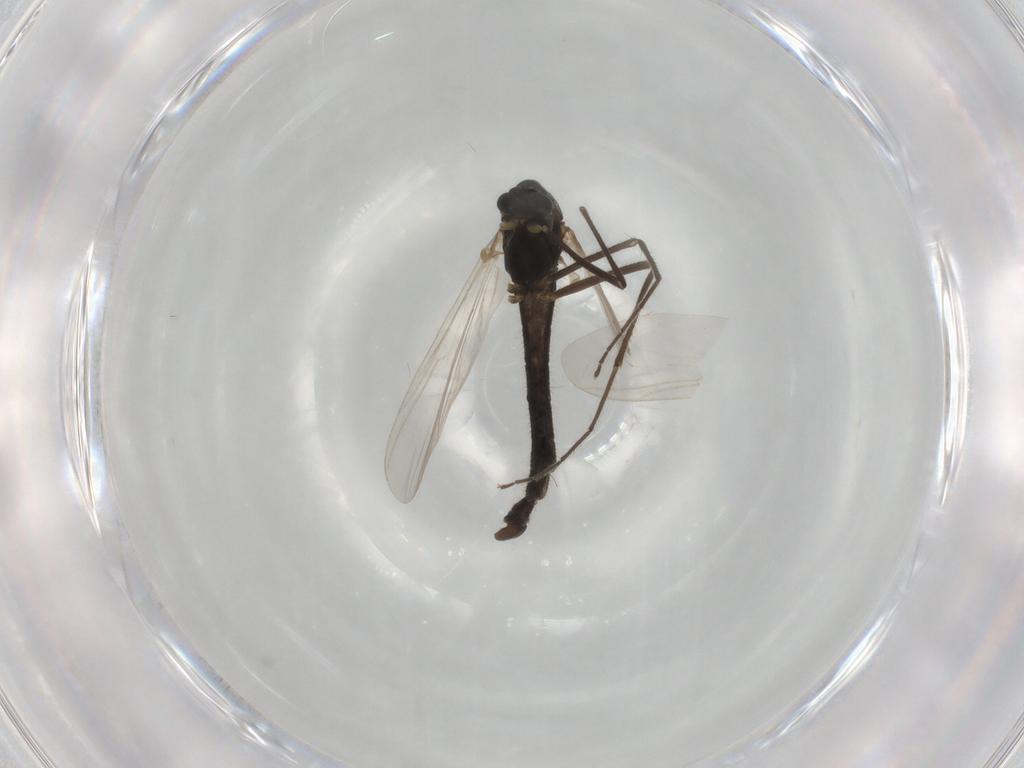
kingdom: Animalia
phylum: Arthropoda
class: Insecta
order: Diptera
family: Chironomidae
